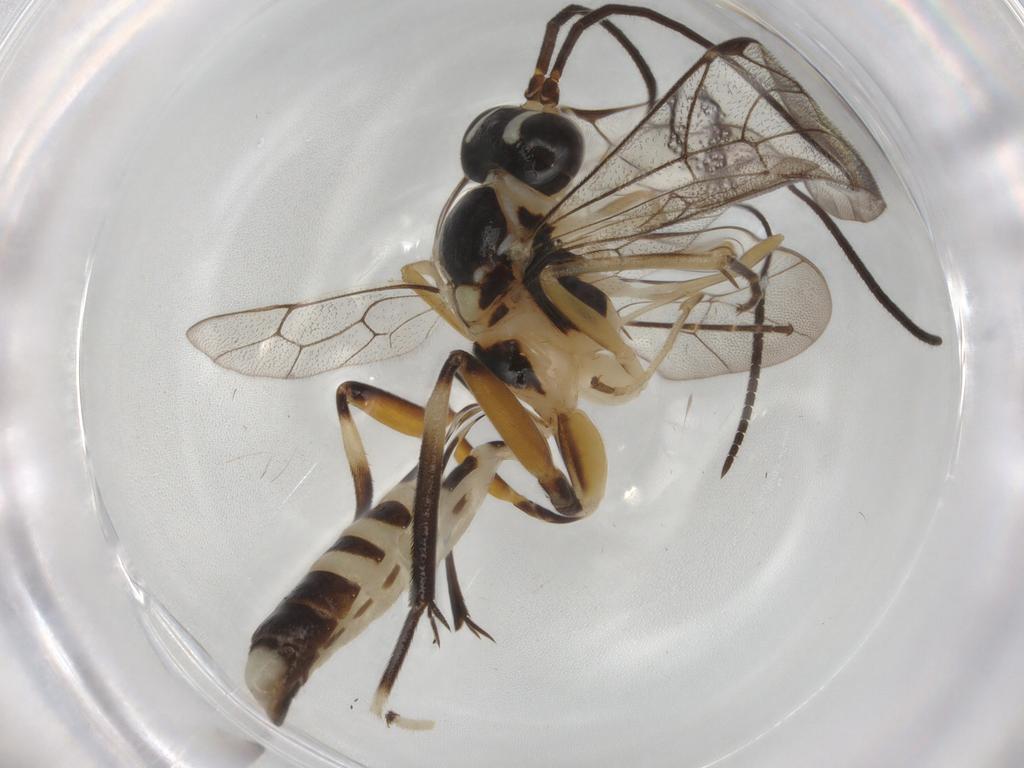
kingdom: Animalia
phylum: Arthropoda
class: Insecta
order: Hymenoptera
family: Ichneumonidae
